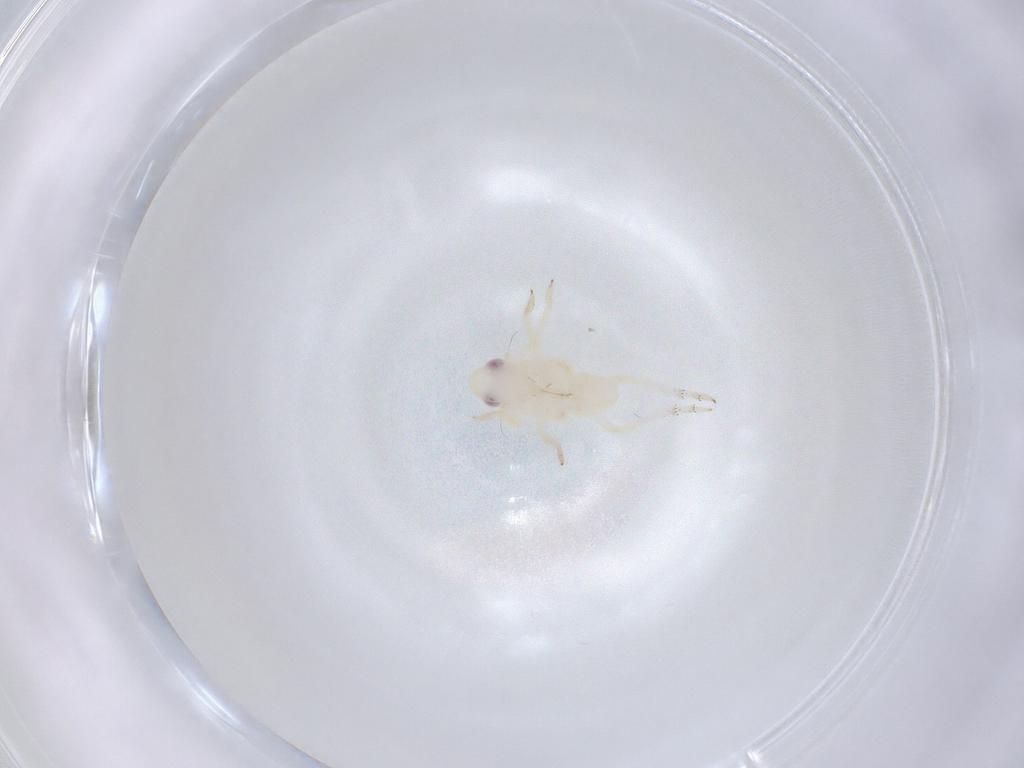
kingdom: Animalia
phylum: Arthropoda
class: Insecta
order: Hemiptera
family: Tropiduchidae
